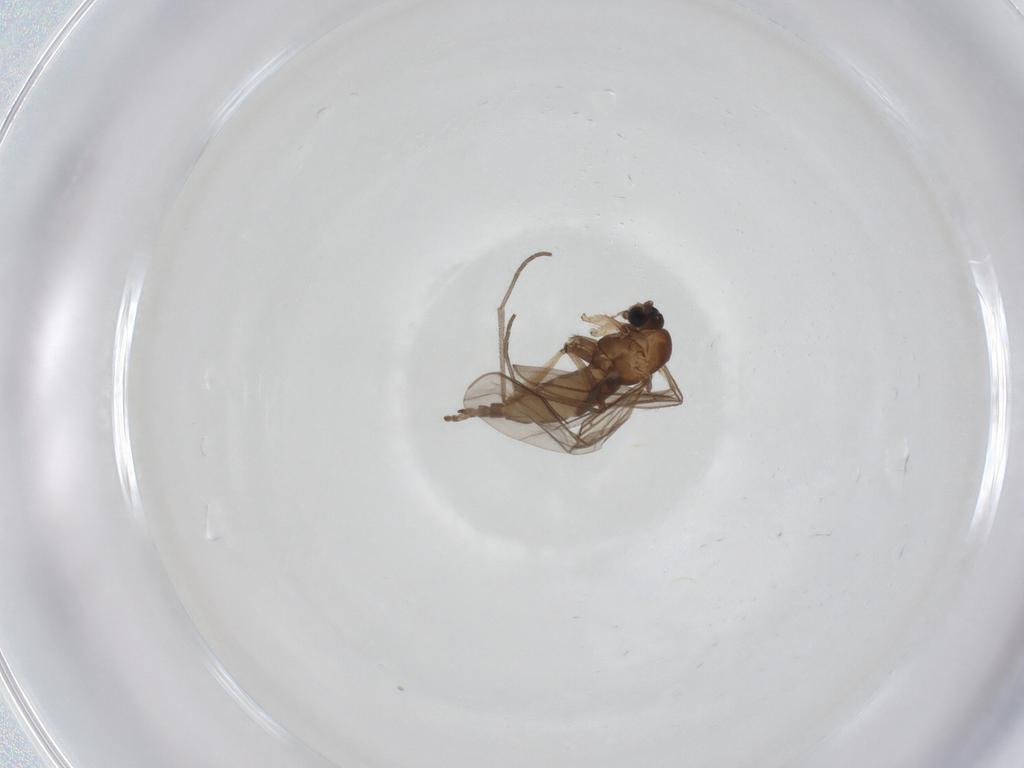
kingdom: Animalia
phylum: Arthropoda
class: Insecta
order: Diptera
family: Sciaridae
